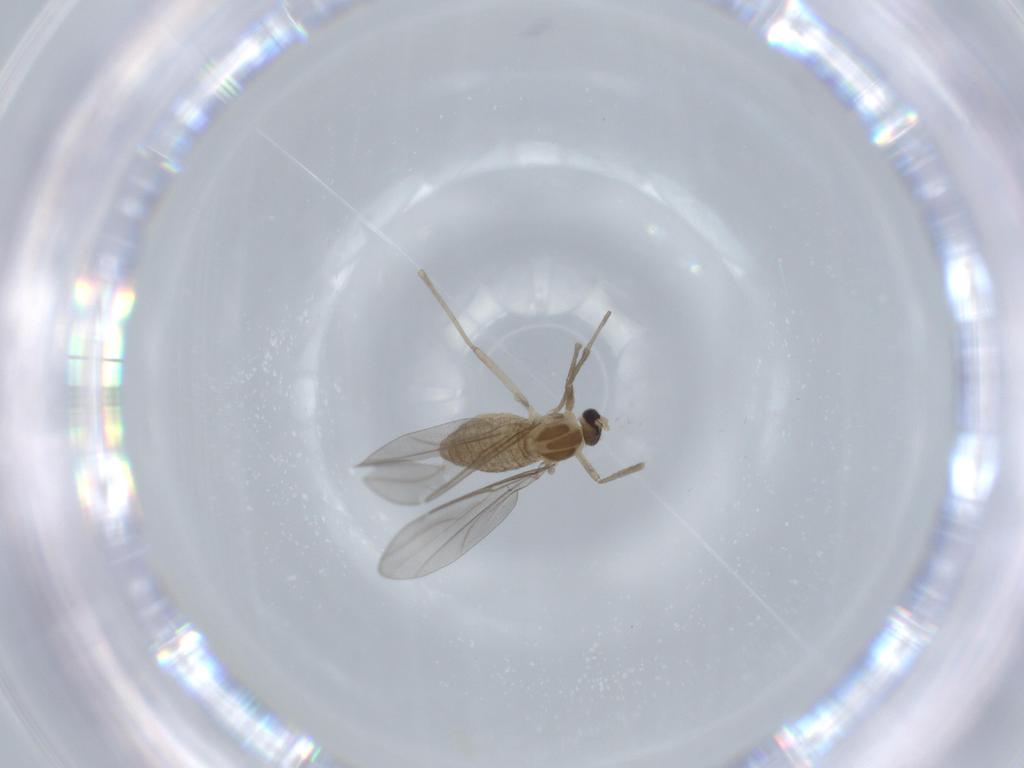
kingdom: Animalia
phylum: Arthropoda
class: Insecta
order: Diptera
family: Cecidomyiidae
